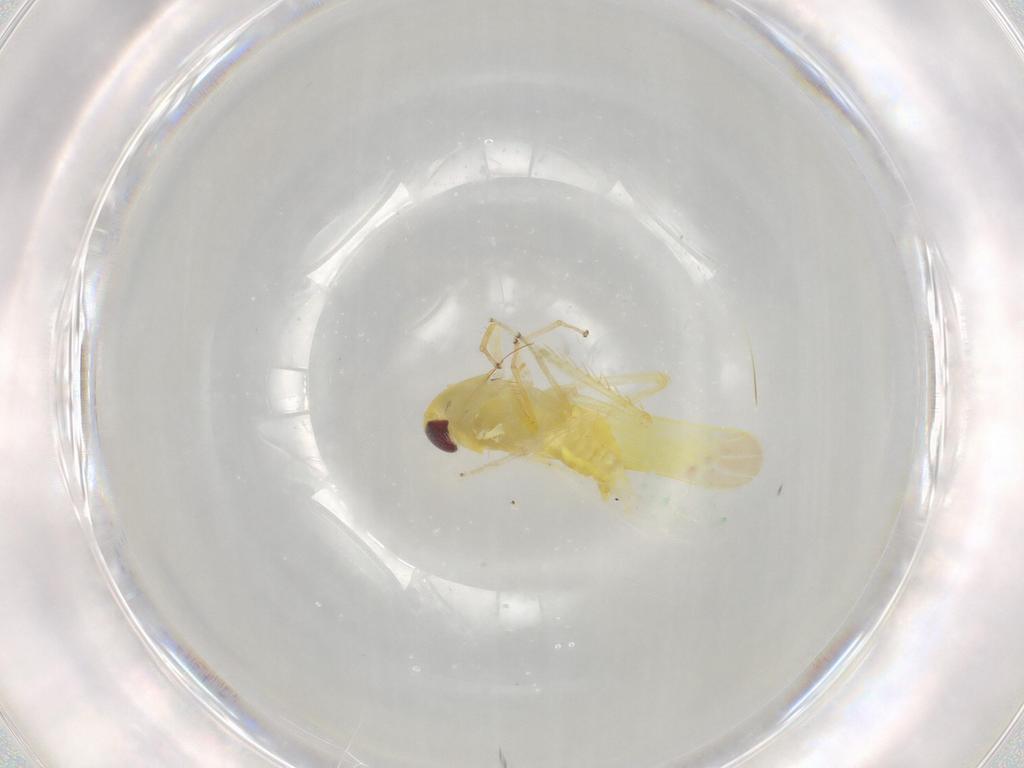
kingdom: Animalia
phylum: Arthropoda
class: Insecta
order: Hemiptera
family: Cicadellidae
